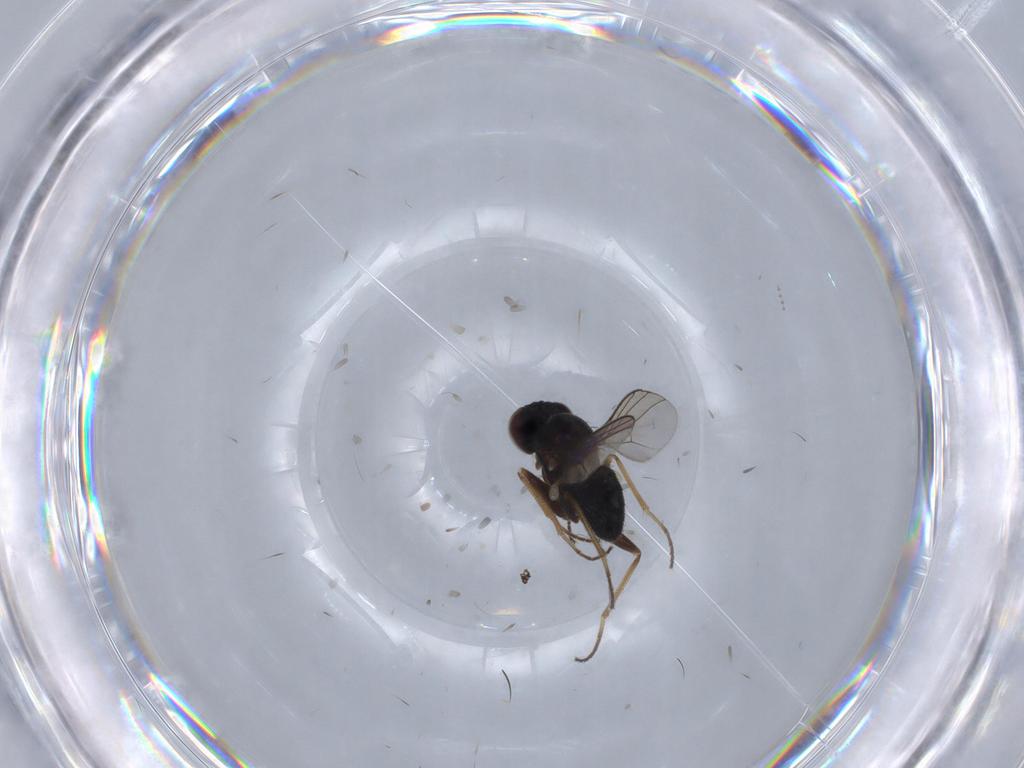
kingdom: Animalia
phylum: Arthropoda
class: Insecta
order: Diptera
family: Dolichopodidae
